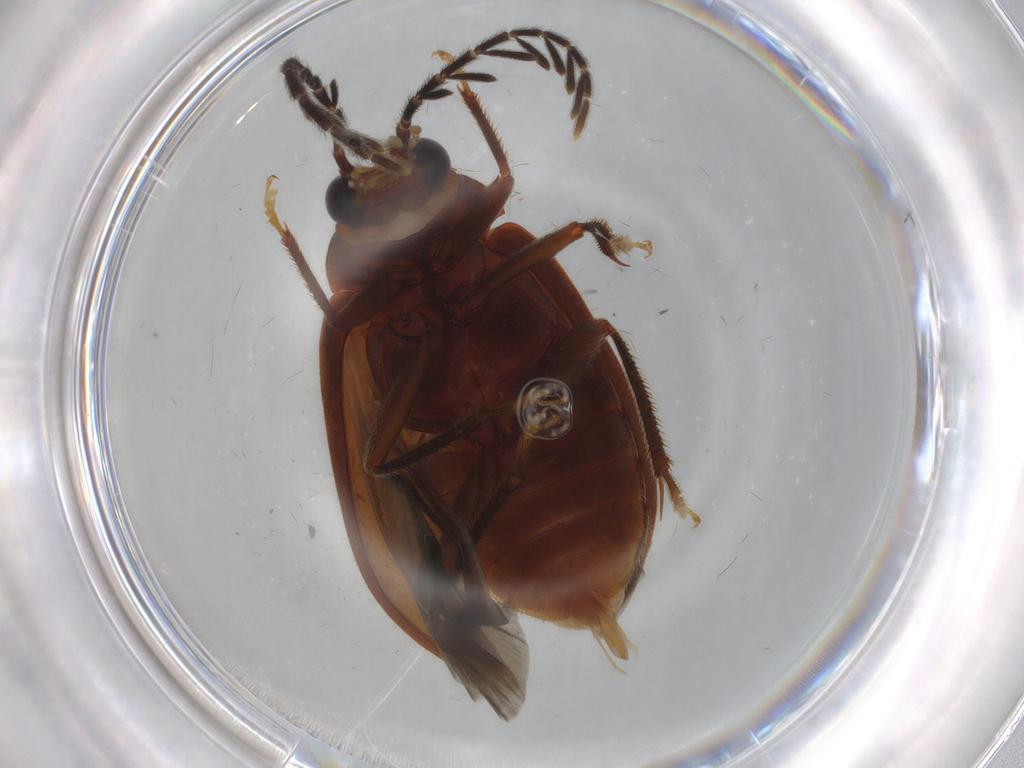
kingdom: Animalia
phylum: Arthropoda
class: Insecta
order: Coleoptera
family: Ptilodactylidae
